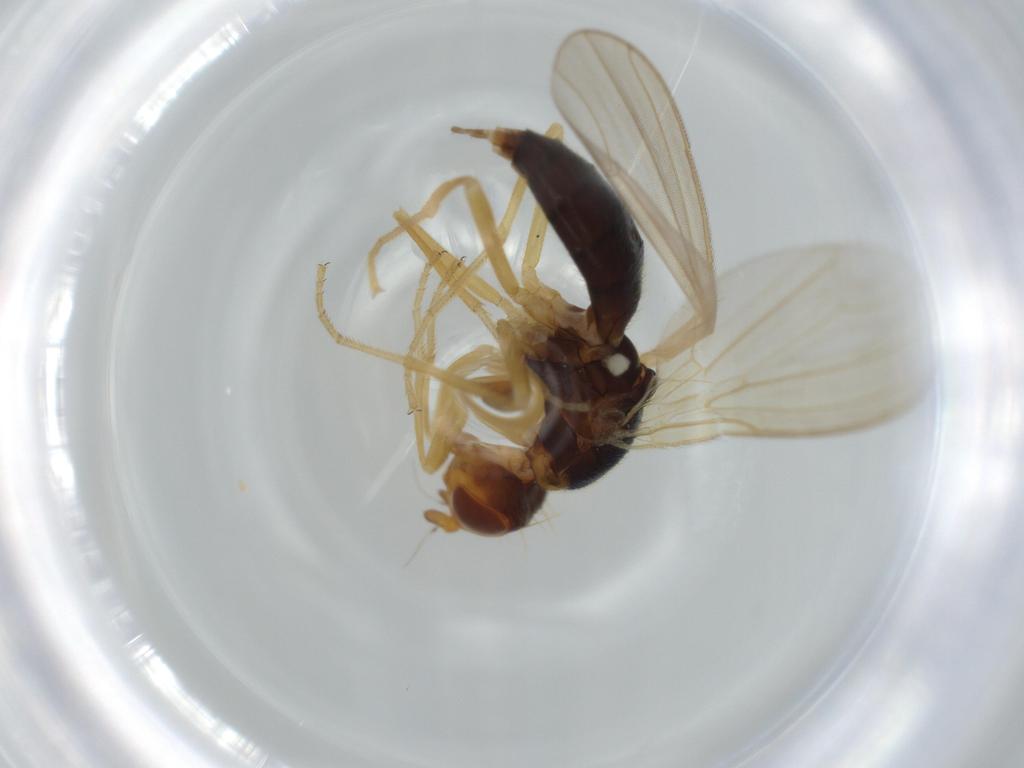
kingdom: Animalia
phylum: Arthropoda
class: Insecta
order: Diptera
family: Psilidae
